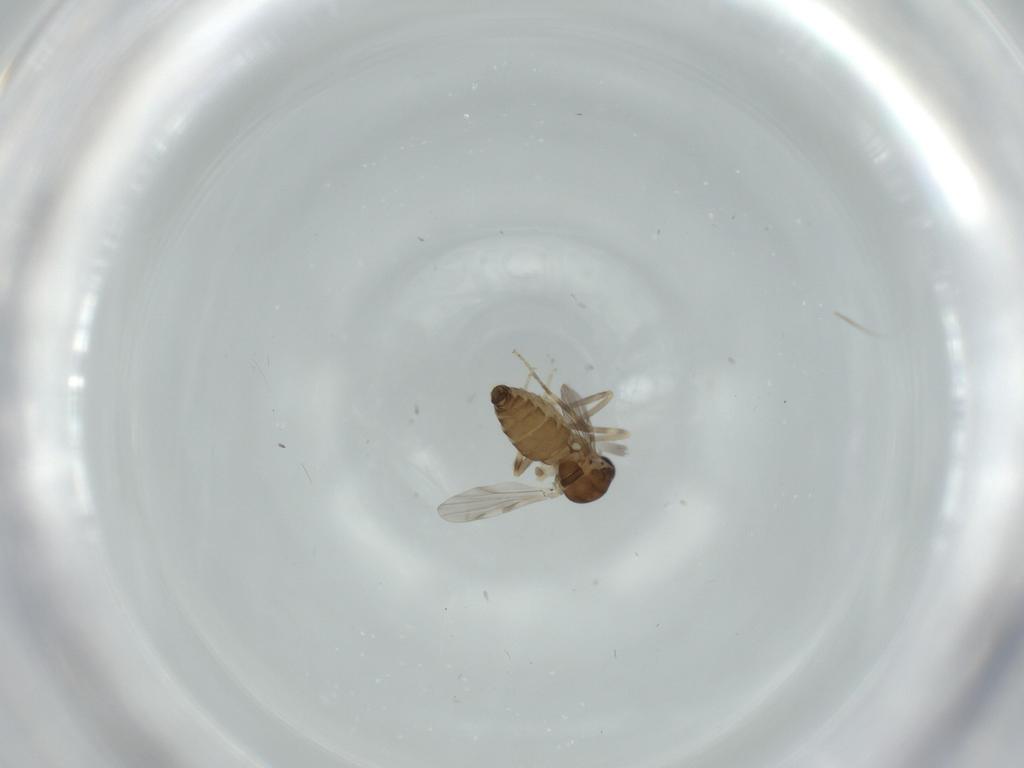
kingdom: Animalia
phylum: Arthropoda
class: Insecta
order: Diptera
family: Ceratopogonidae
